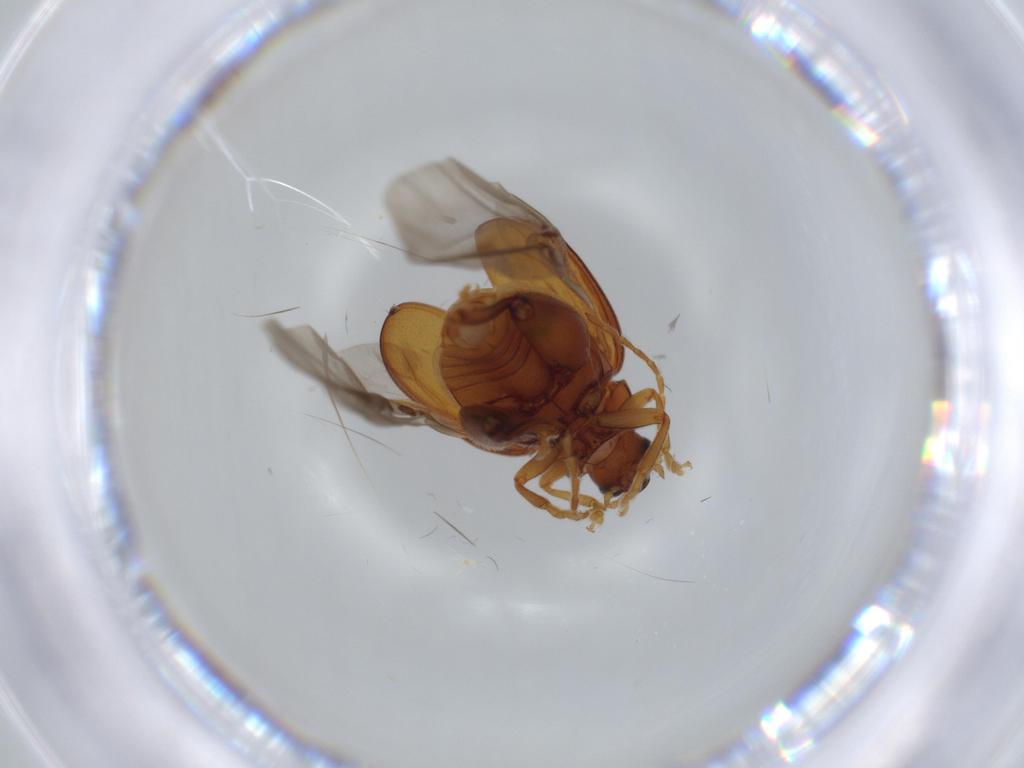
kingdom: Animalia
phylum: Arthropoda
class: Insecta
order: Coleoptera
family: Chrysomelidae
